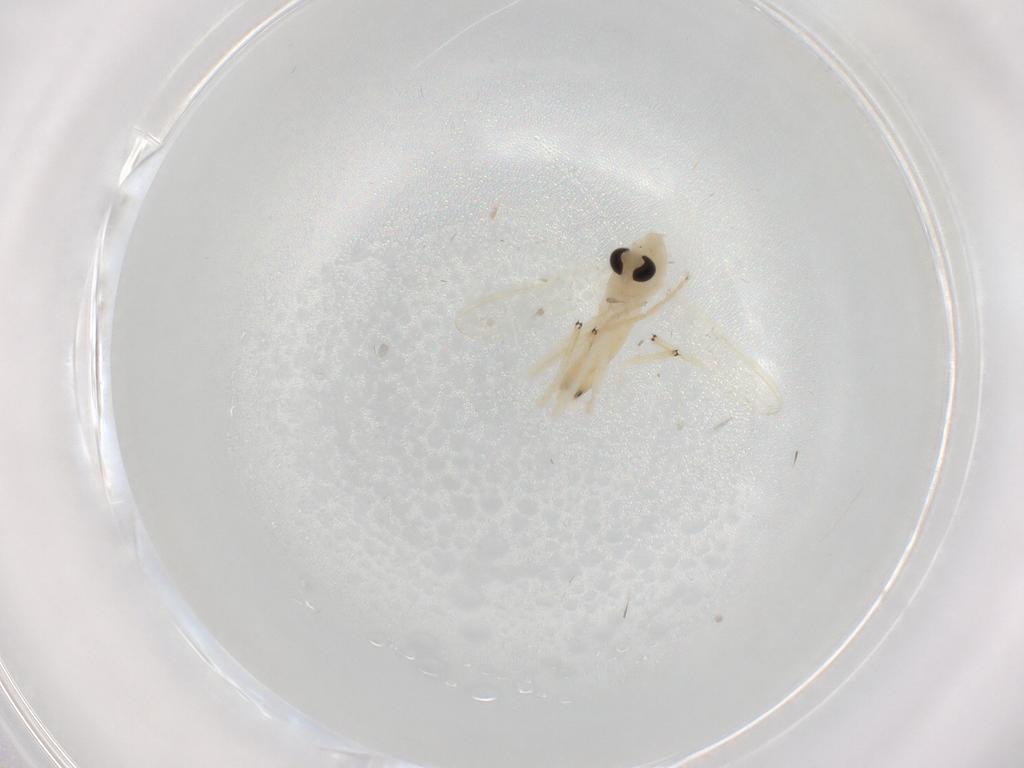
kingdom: Animalia
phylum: Arthropoda
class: Insecta
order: Diptera
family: Chironomidae
